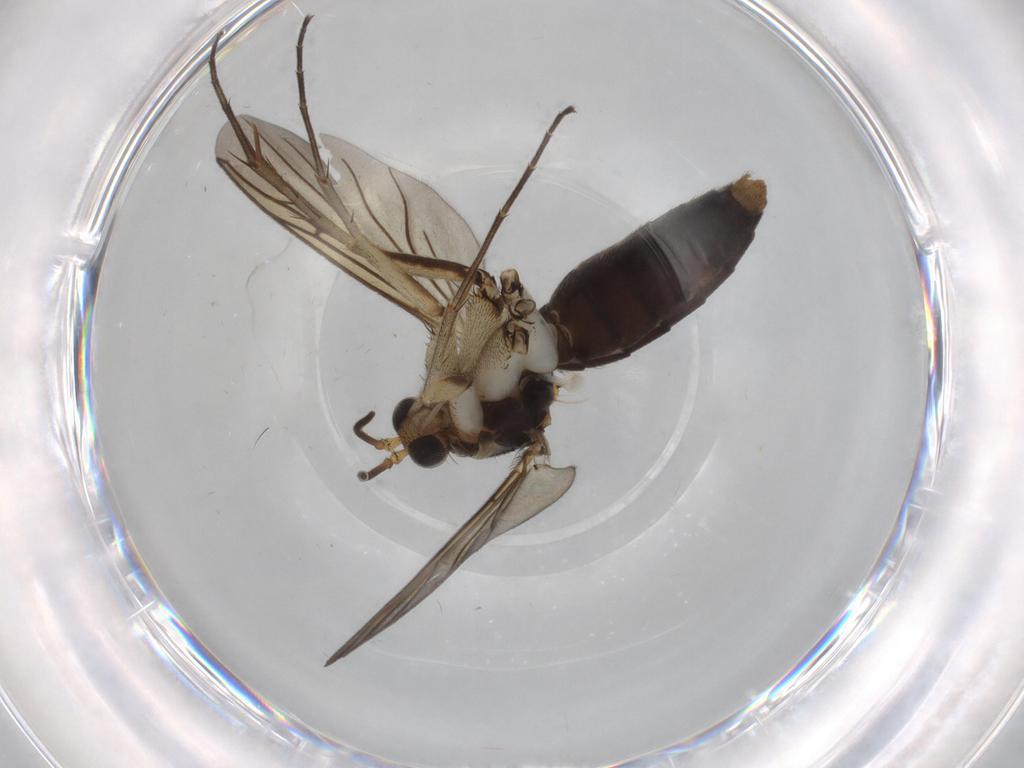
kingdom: Animalia
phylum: Arthropoda
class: Insecta
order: Diptera
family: Mycetophilidae
